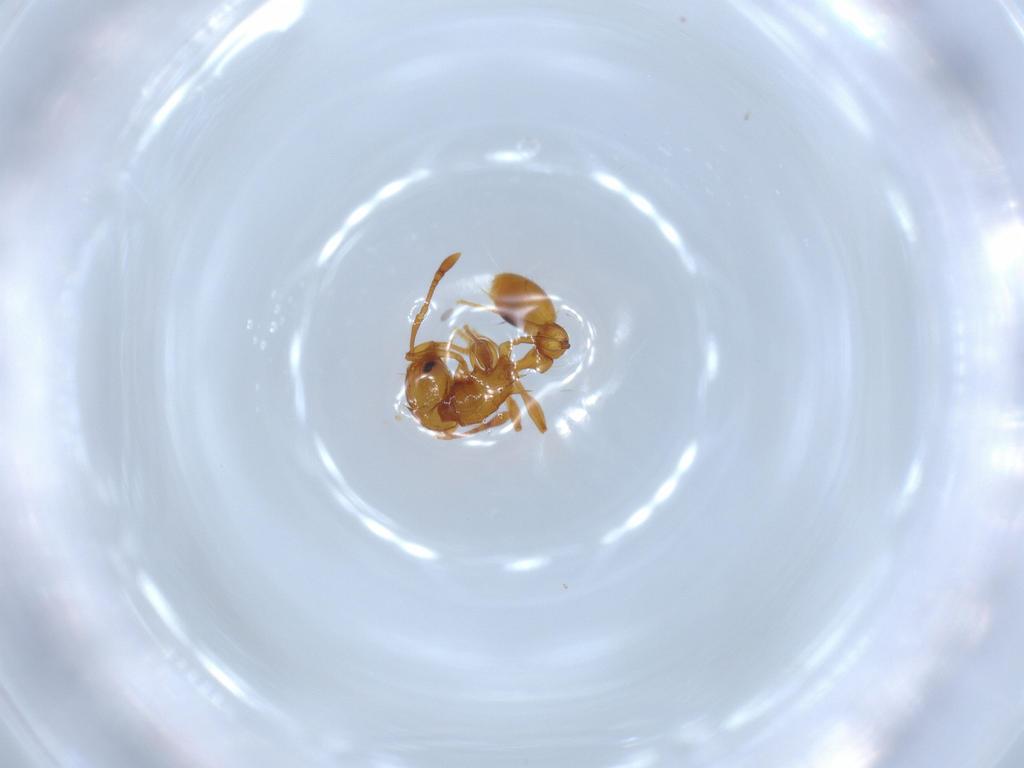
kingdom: Animalia
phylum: Arthropoda
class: Insecta
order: Hymenoptera
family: Formicidae
